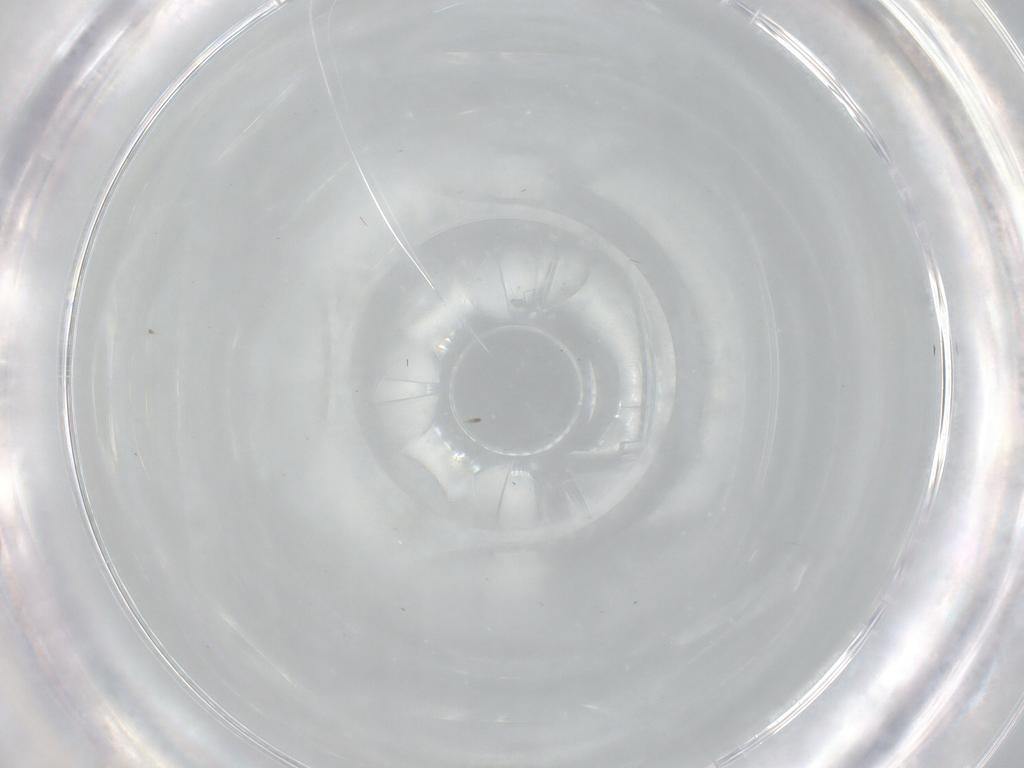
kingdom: Animalia
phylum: Arthropoda
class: Insecta
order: Diptera
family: Cecidomyiidae
